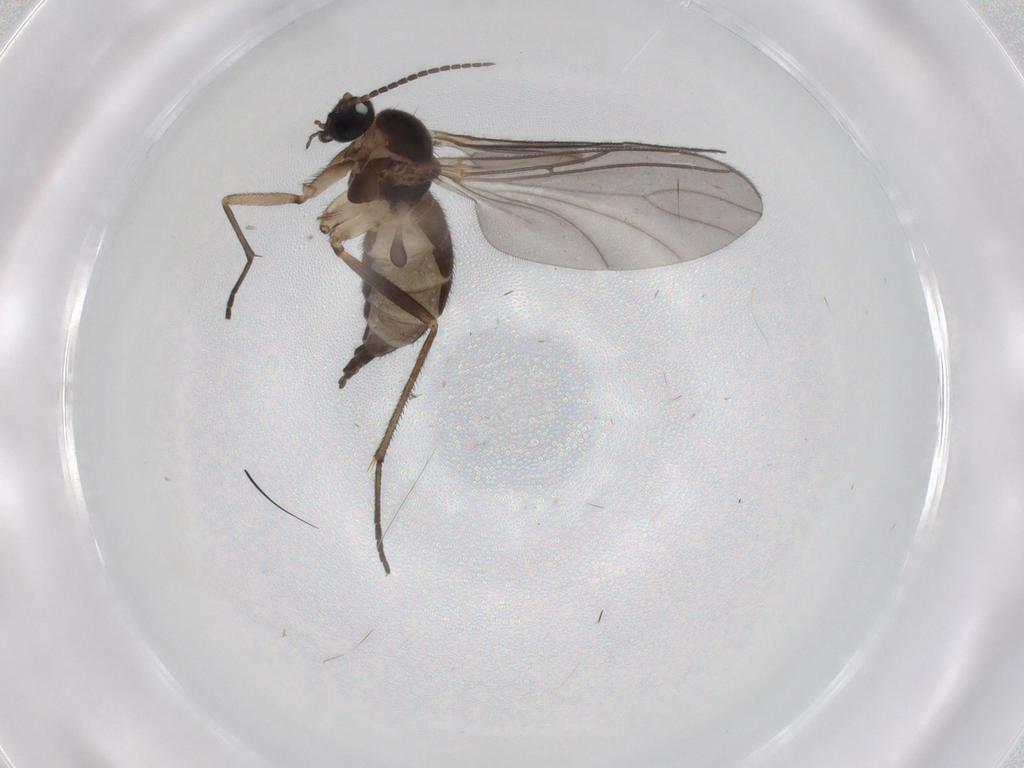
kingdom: Animalia
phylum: Arthropoda
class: Insecta
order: Diptera
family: Sciaridae
